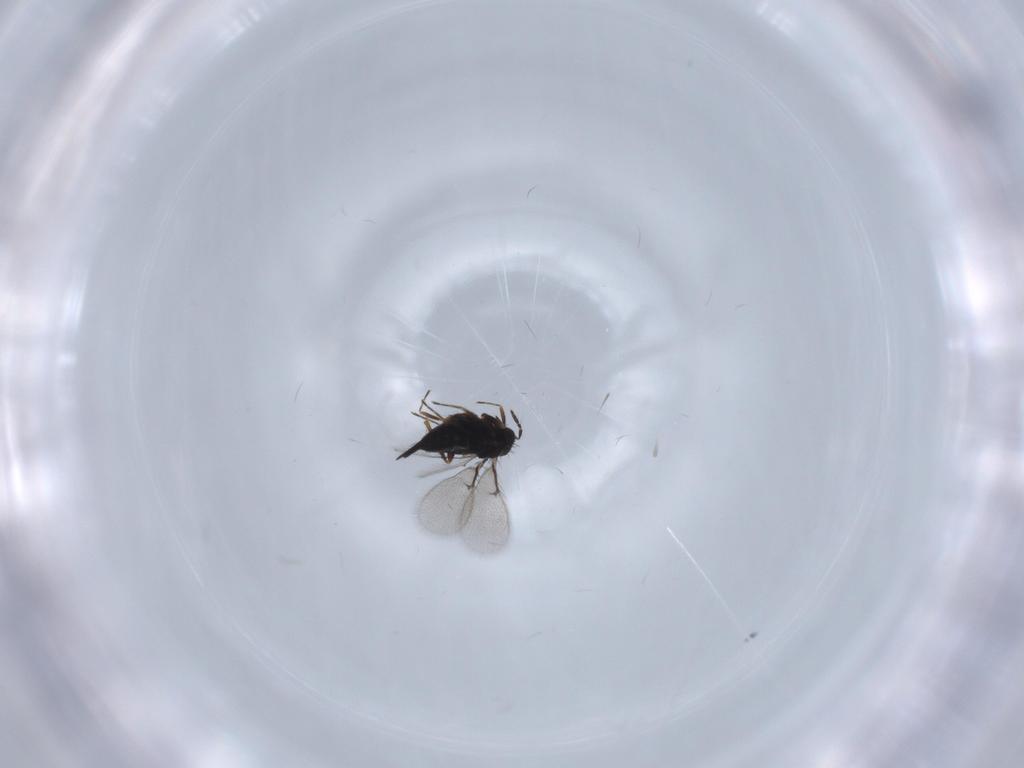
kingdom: Animalia
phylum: Arthropoda
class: Insecta
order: Hymenoptera
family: Trichogrammatidae
